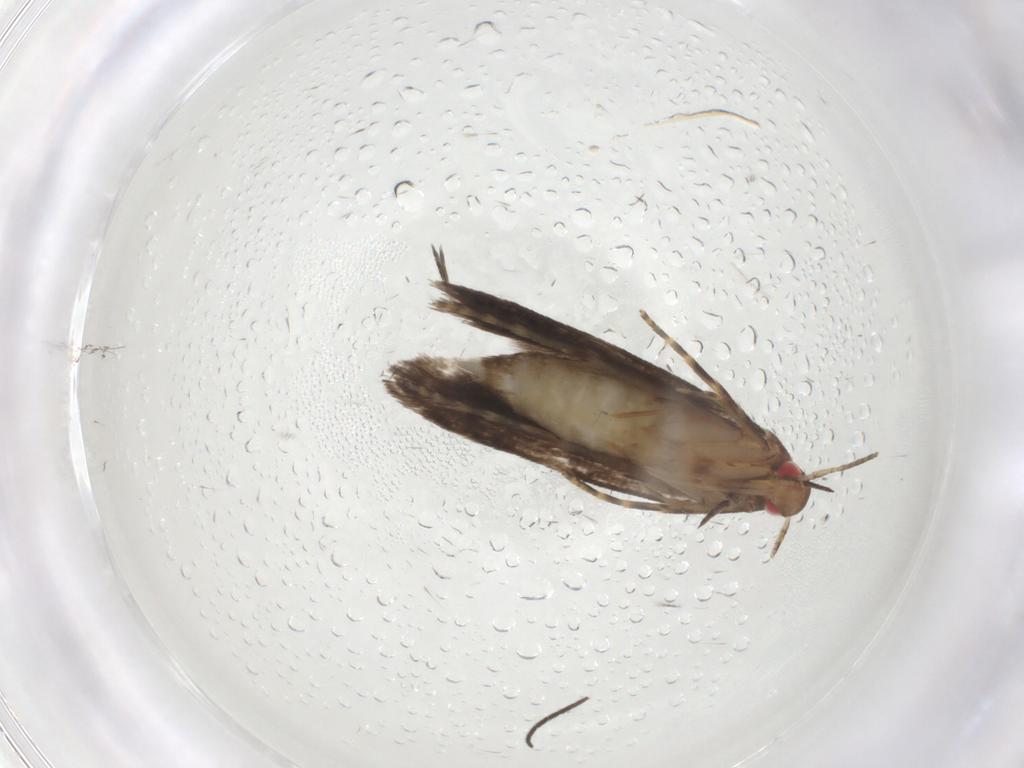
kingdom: Animalia
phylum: Arthropoda
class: Insecta
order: Lepidoptera
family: Gelechiidae
